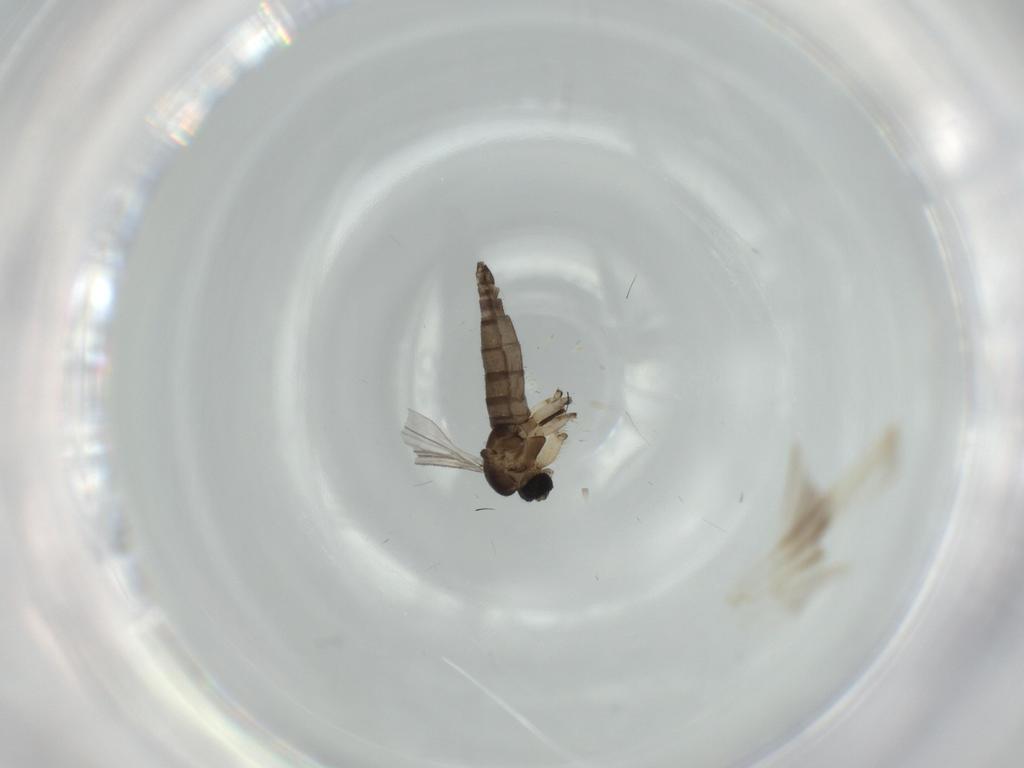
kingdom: Animalia
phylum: Arthropoda
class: Insecta
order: Diptera
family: Sciaridae
